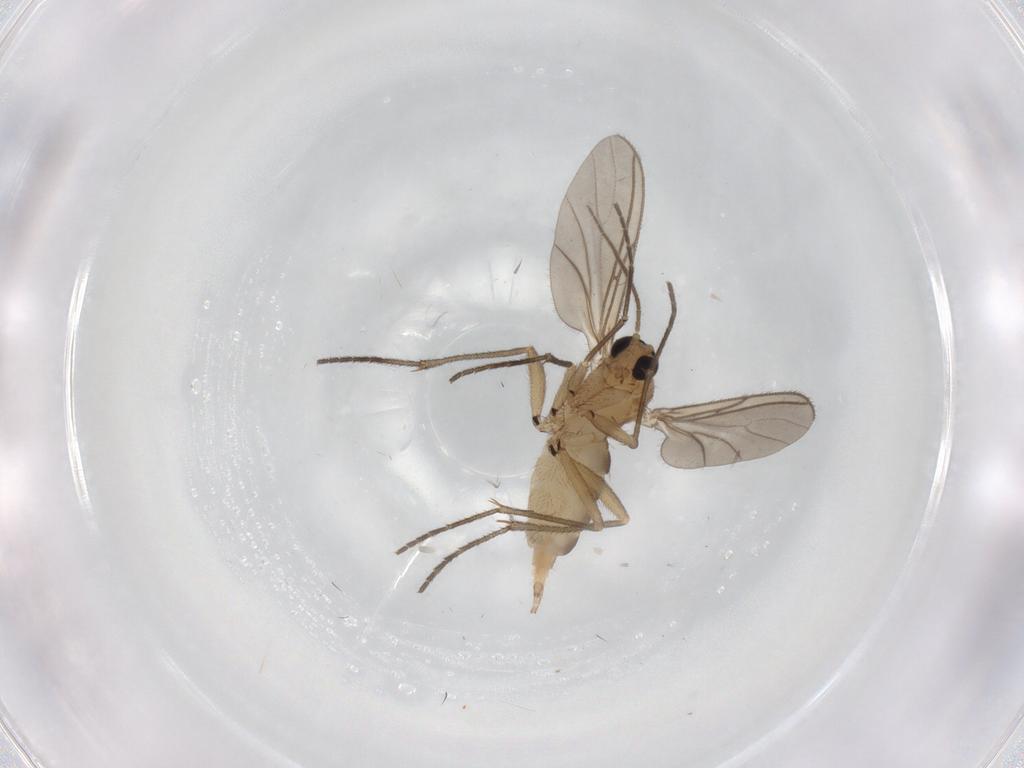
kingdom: Animalia
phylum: Arthropoda
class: Insecta
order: Diptera
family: Sciaridae
